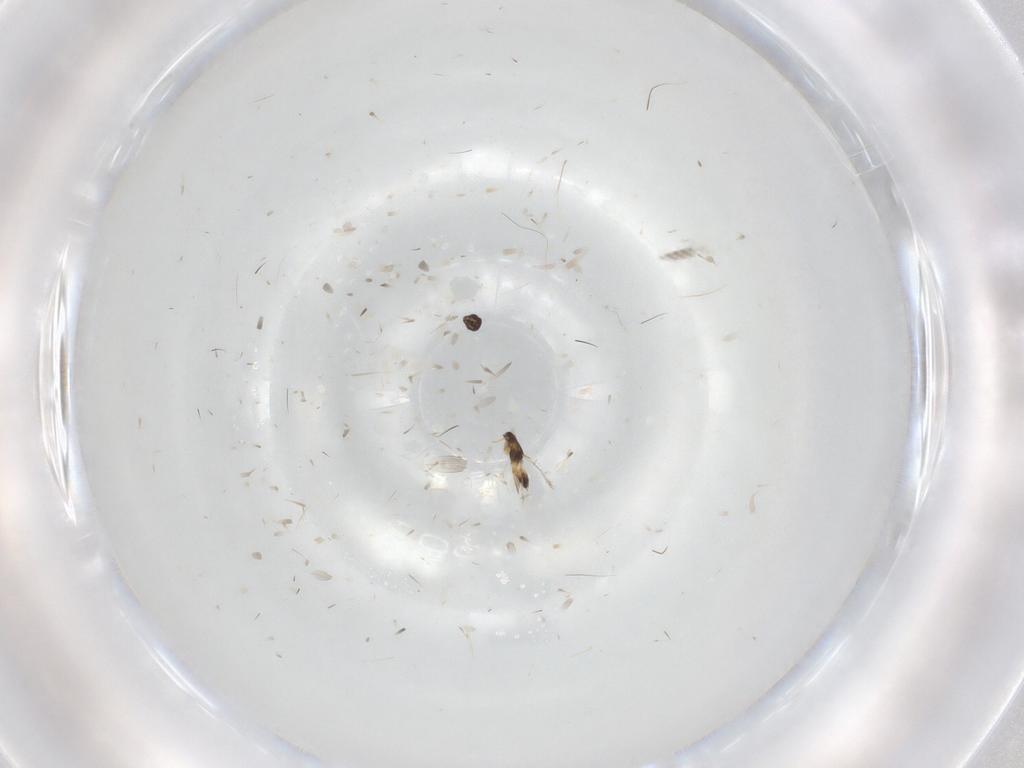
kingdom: Animalia
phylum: Arthropoda
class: Insecta
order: Hymenoptera
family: Mymaridae
